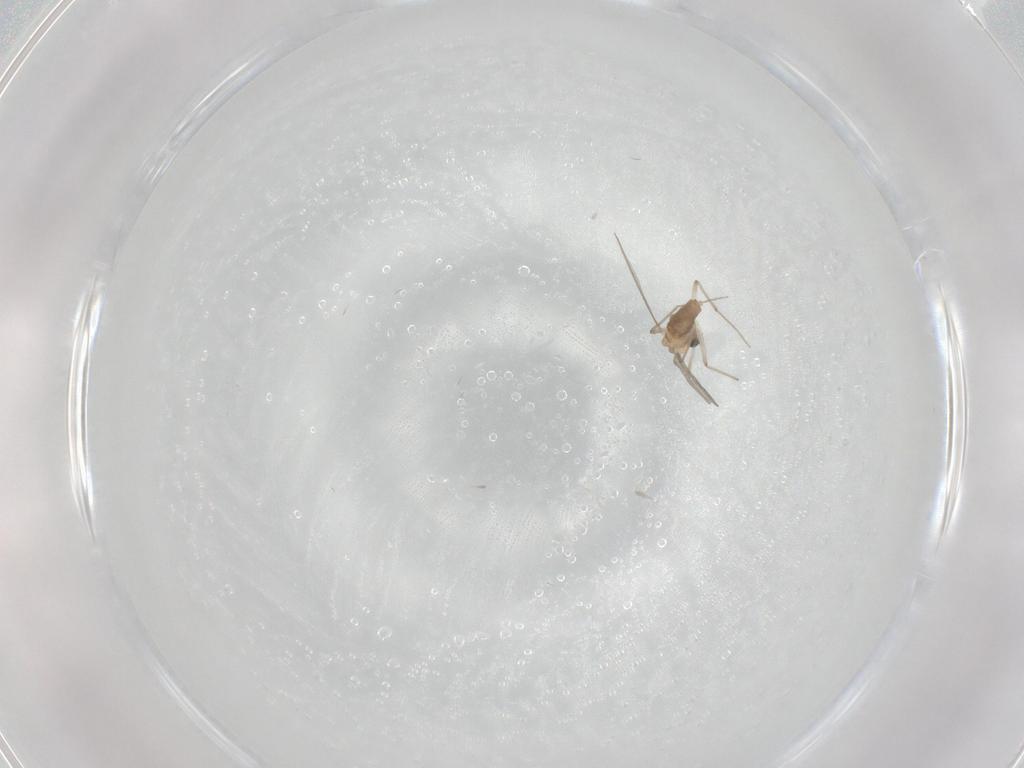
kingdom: Animalia
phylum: Arthropoda
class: Insecta
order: Diptera
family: Chironomidae
